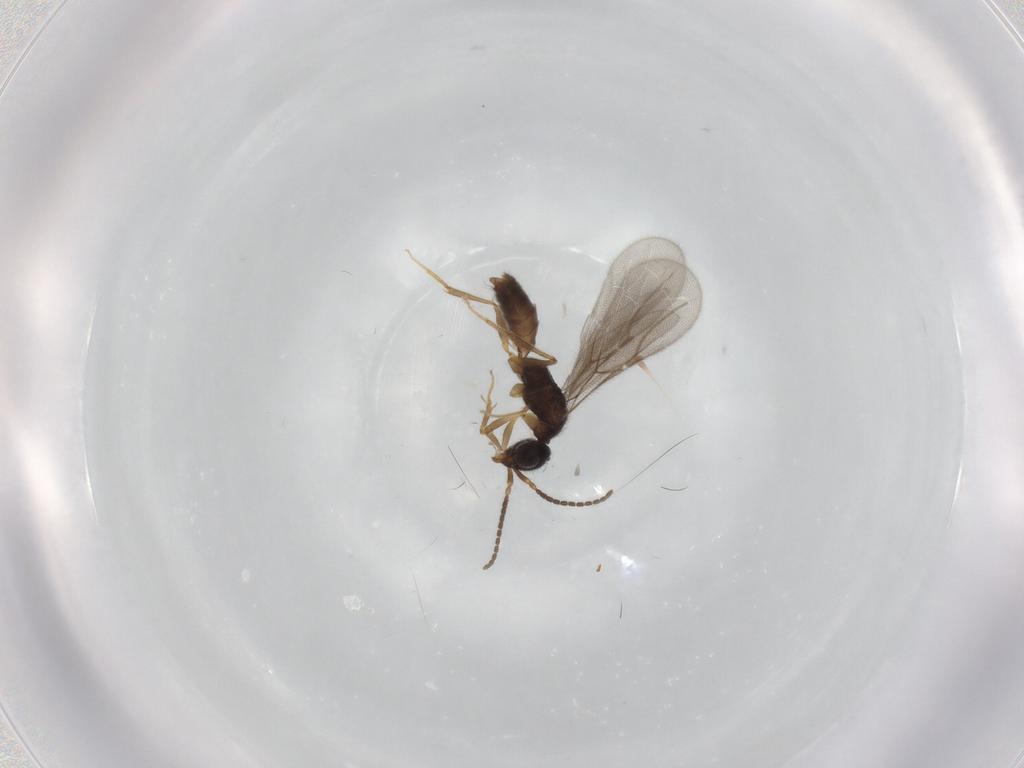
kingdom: Animalia
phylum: Arthropoda
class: Insecta
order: Hymenoptera
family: Bethylidae
